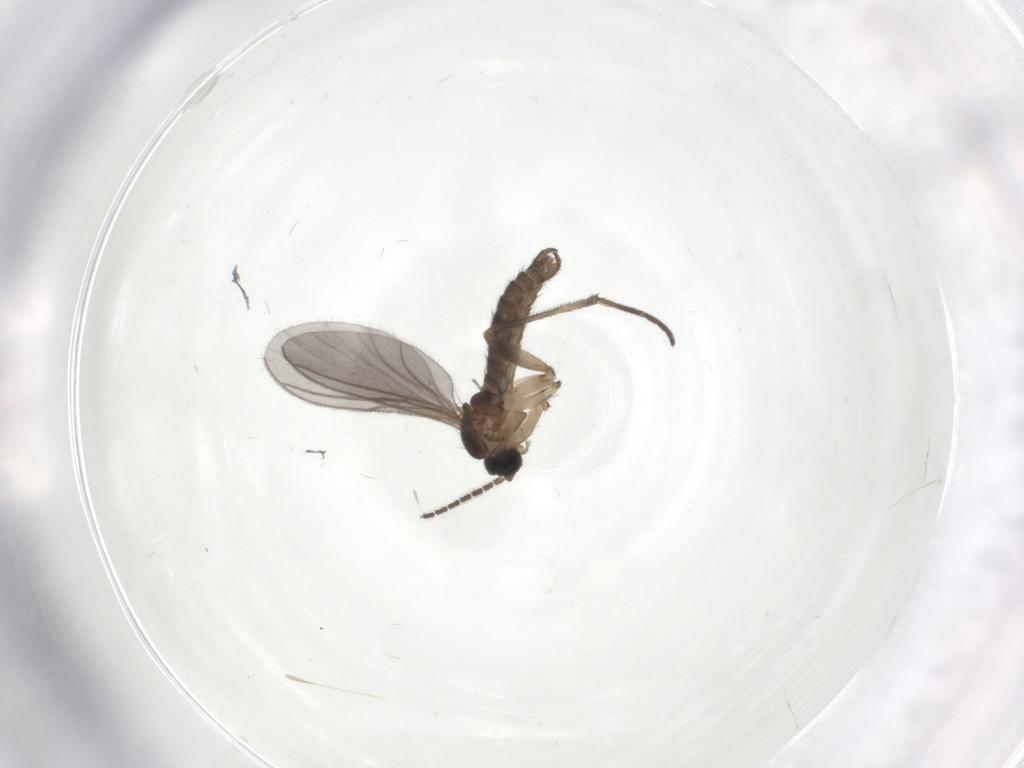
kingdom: Animalia
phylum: Arthropoda
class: Insecta
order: Diptera
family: Sciaridae
